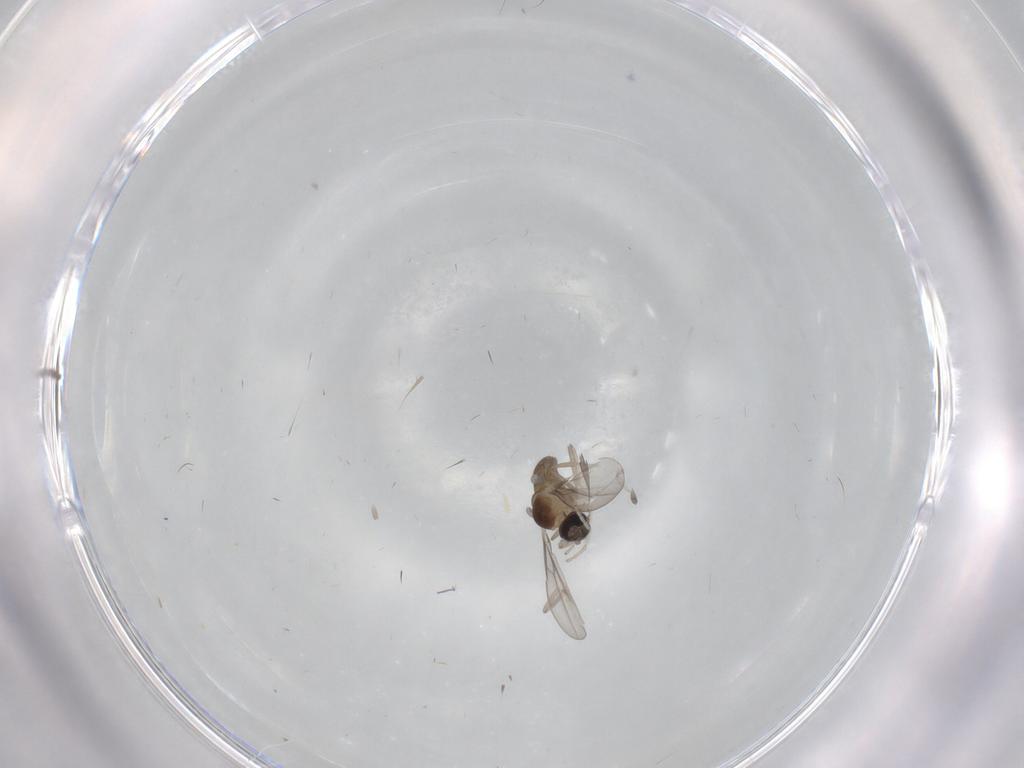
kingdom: Animalia
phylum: Arthropoda
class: Insecta
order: Diptera
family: Cecidomyiidae
